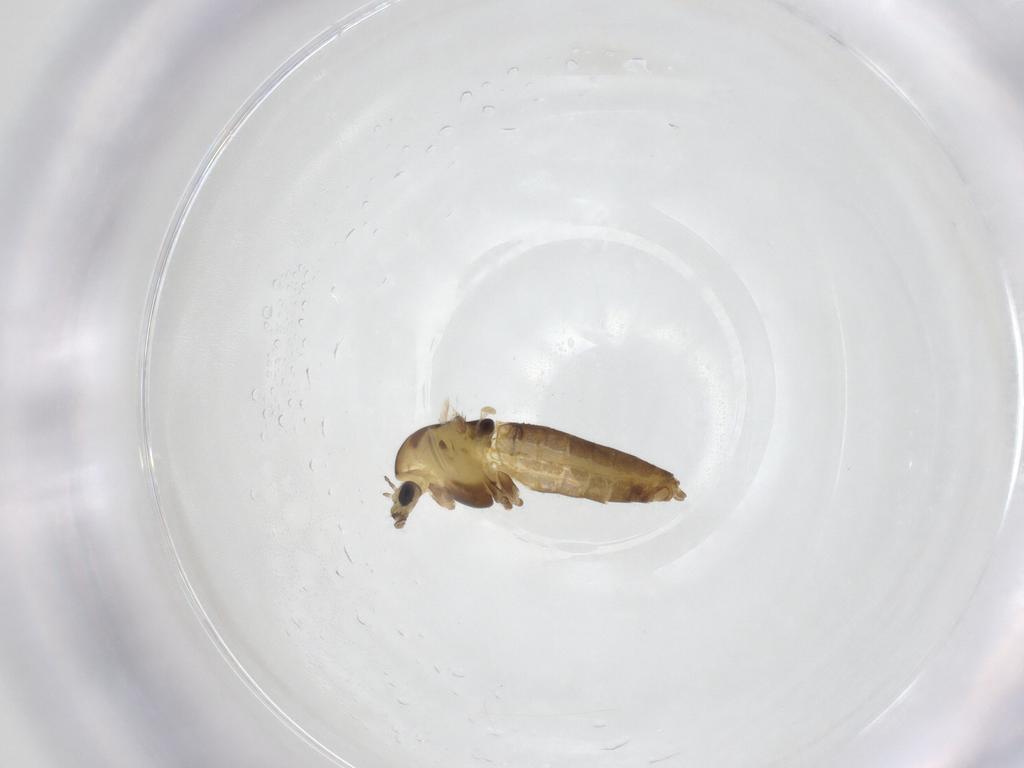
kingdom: Animalia
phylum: Arthropoda
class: Insecta
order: Diptera
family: Chironomidae
